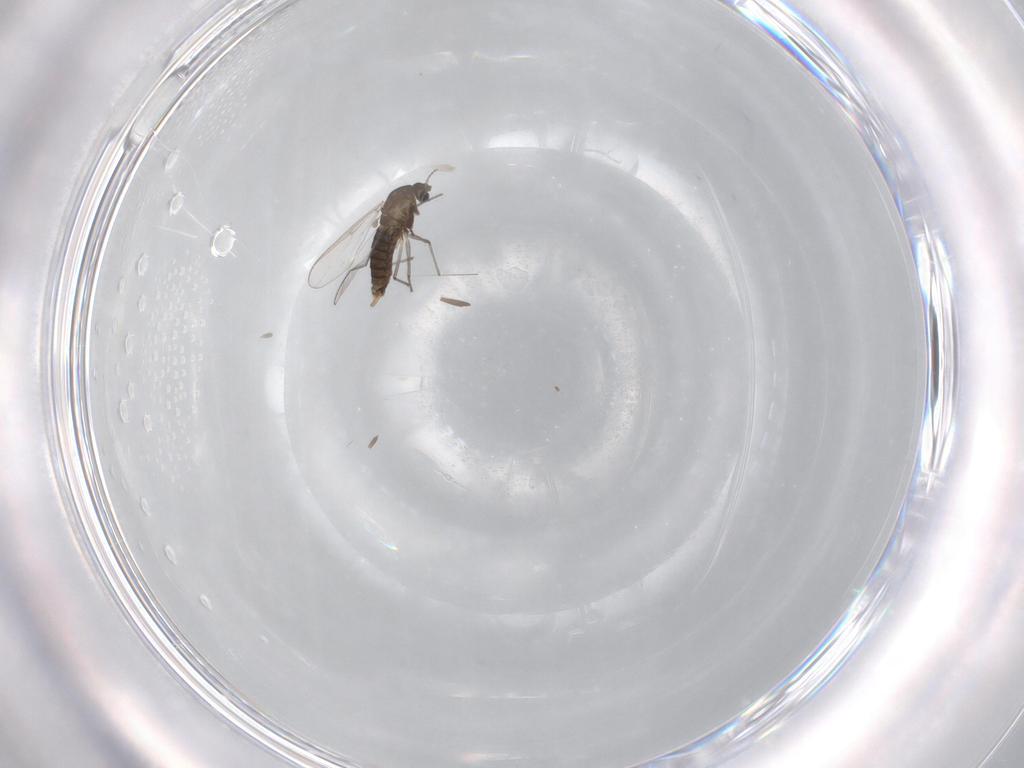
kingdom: Animalia
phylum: Arthropoda
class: Insecta
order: Diptera
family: Chironomidae
